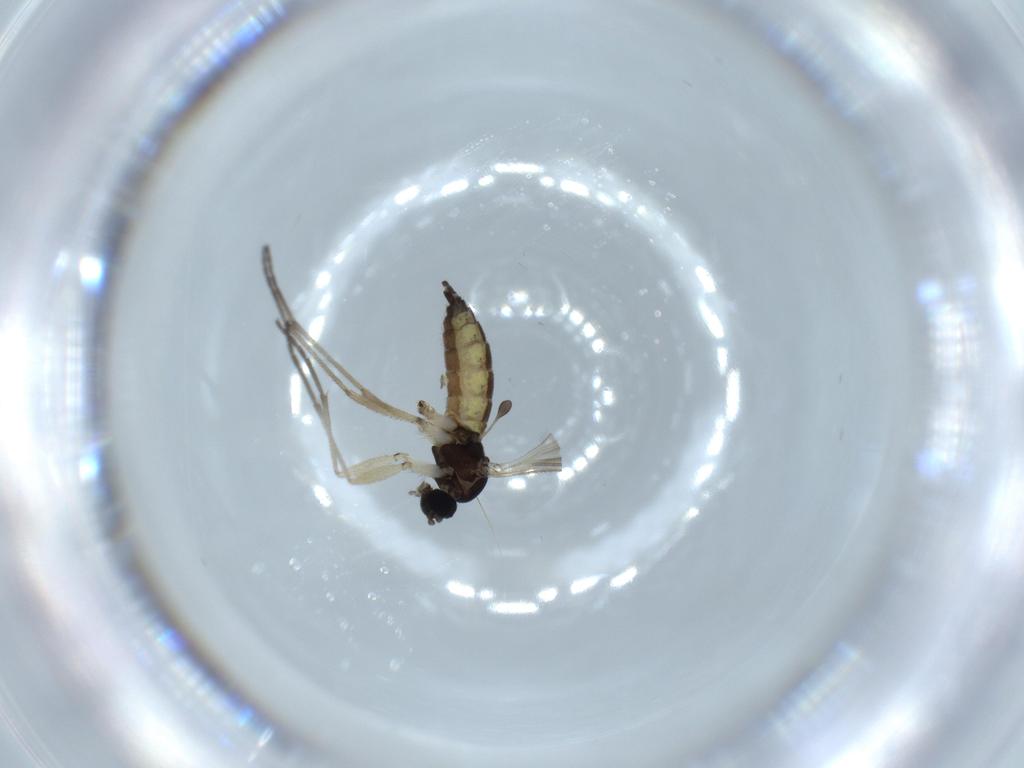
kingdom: Animalia
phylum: Arthropoda
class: Insecta
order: Diptera
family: Sciaridae
